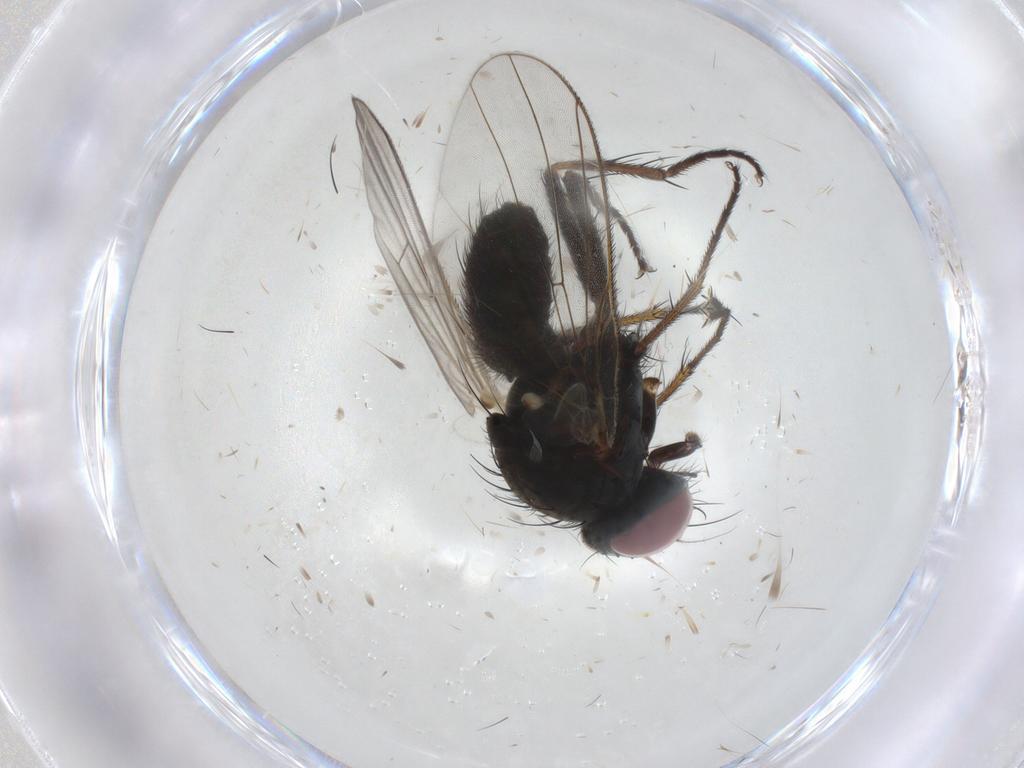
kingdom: Animalia
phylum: Arthropoda
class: Insecta
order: Diptera
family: Muscidae
